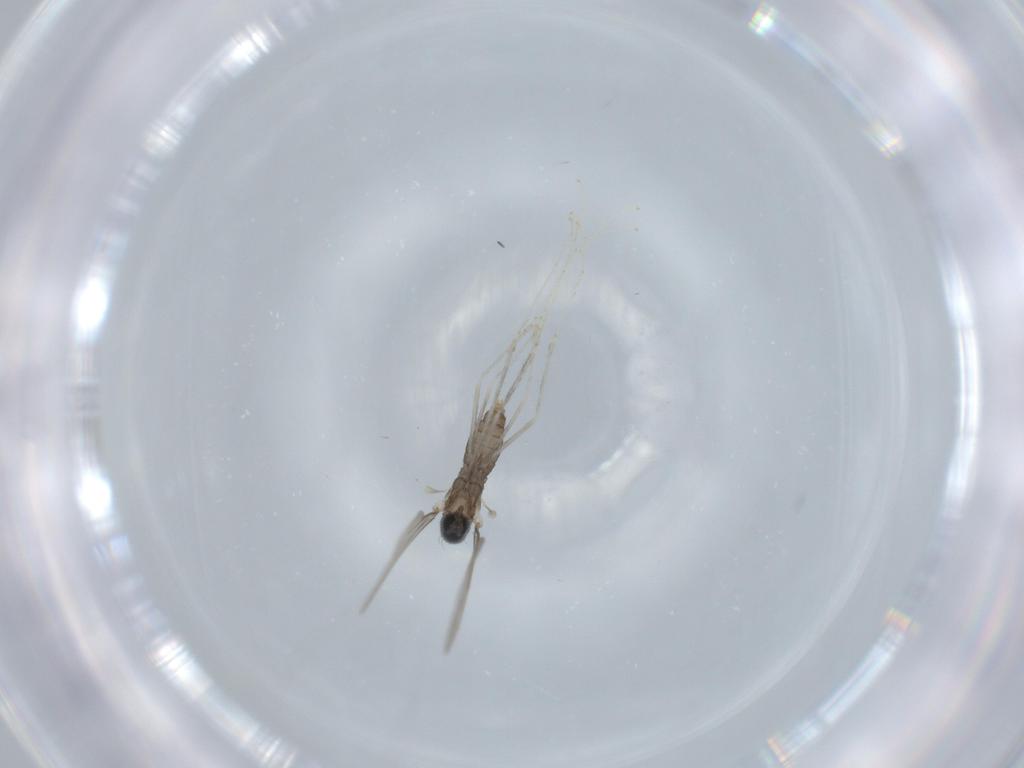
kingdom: Animalia
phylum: Arthropoda
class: Insecta
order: Diptera
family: Cecidomyiidae
